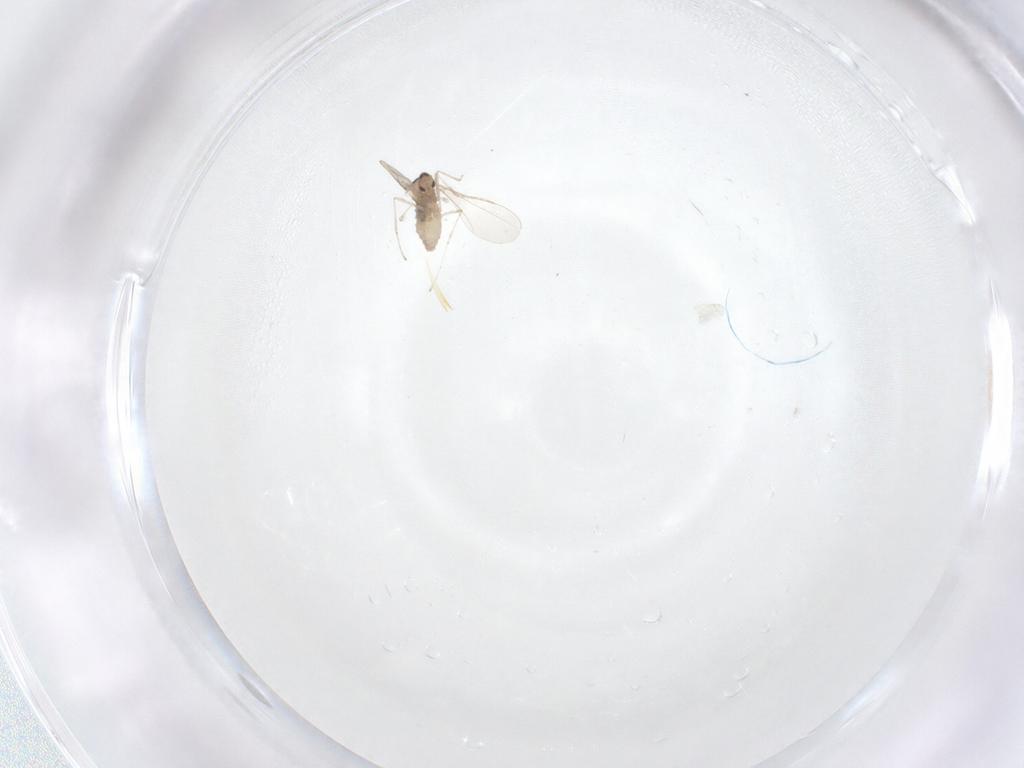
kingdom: Animalia
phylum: Arthropoda
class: Insecta
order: Diptera
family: Cecidomyiidae
